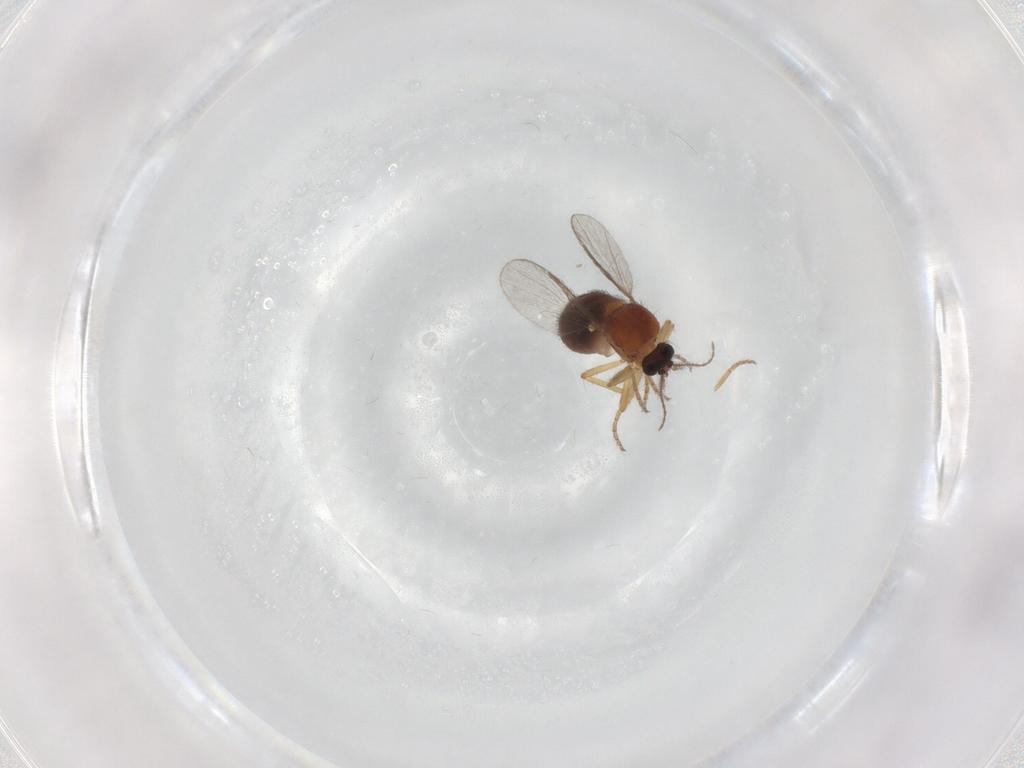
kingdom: Animalia
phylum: Arthropoda
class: Insecta
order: Diptera
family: Ceratopogonidae
